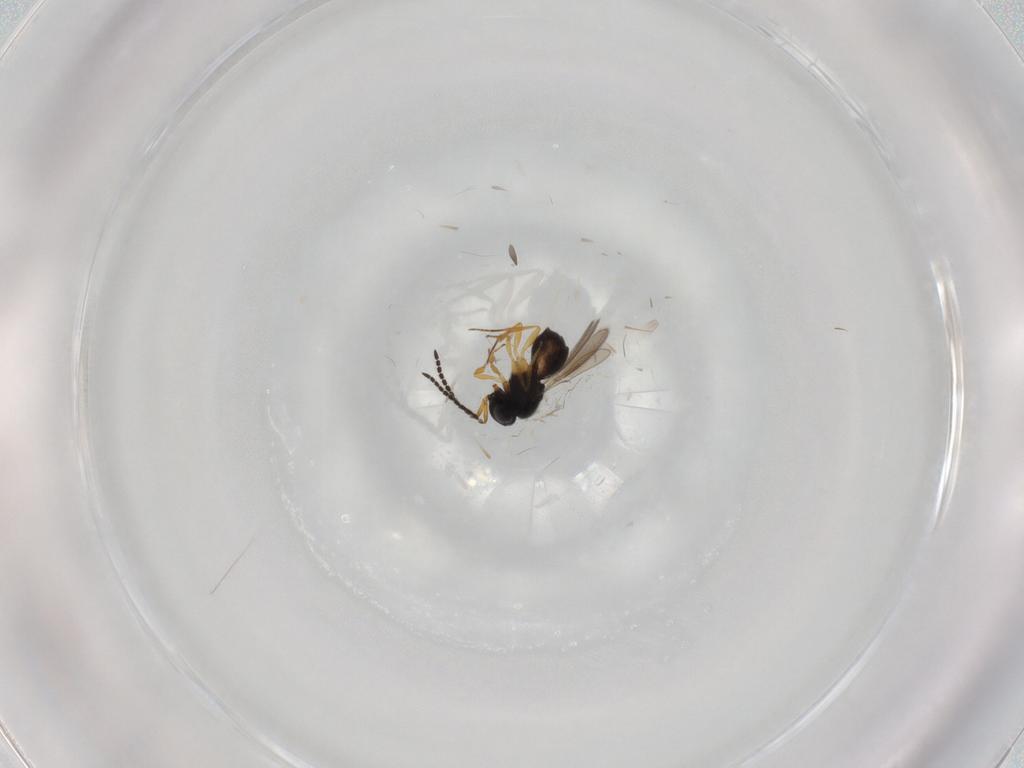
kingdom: Animalia
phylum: Arthropoda
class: Insecta
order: Hymenoptera
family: Scelionidae
